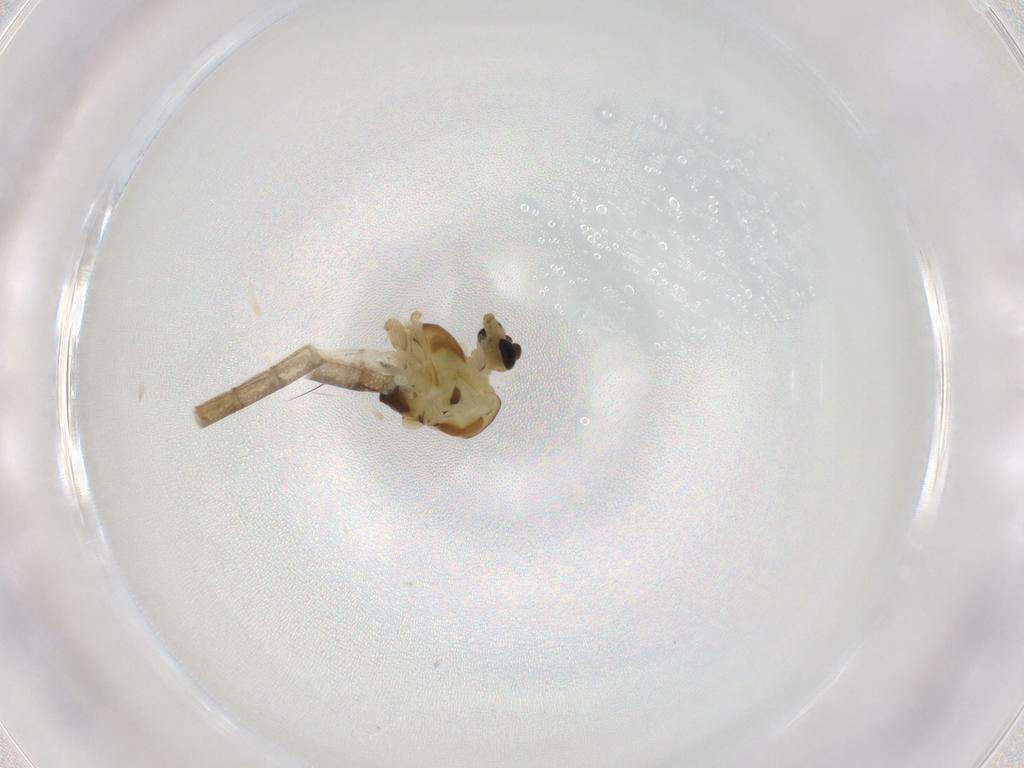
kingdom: Animalia
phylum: Arthropoda
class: Insecta
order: Diptera
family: Chironomidae
